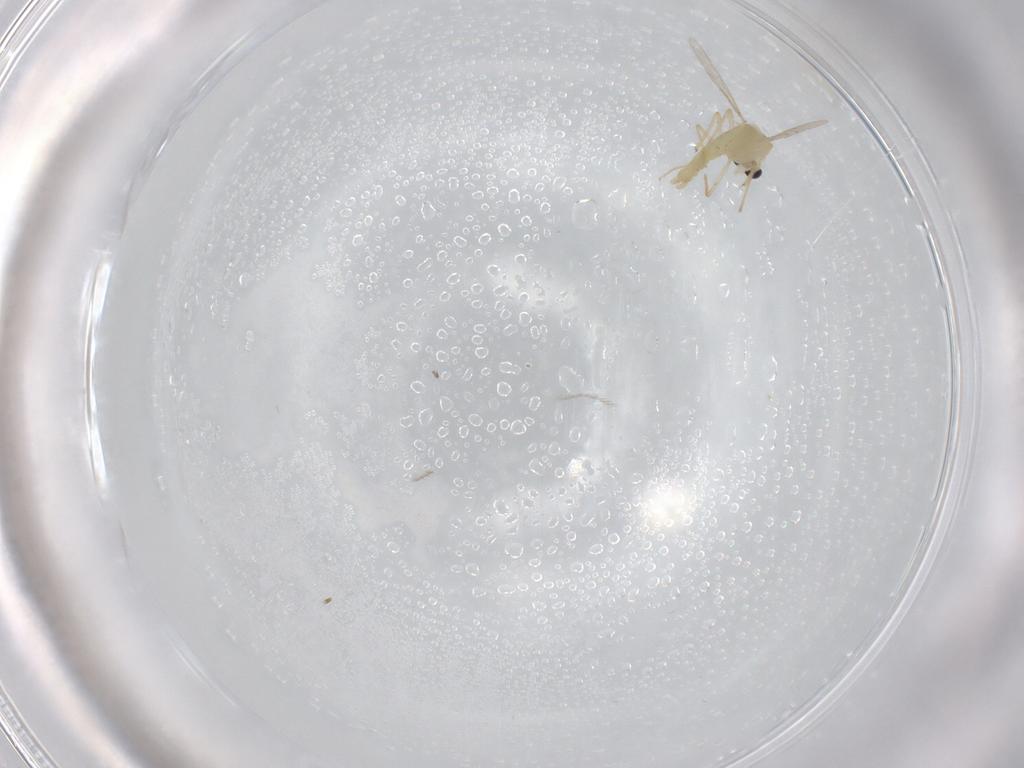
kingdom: Animalia
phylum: Arthropoda
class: Insecta
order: Diptera
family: Chironomidae
